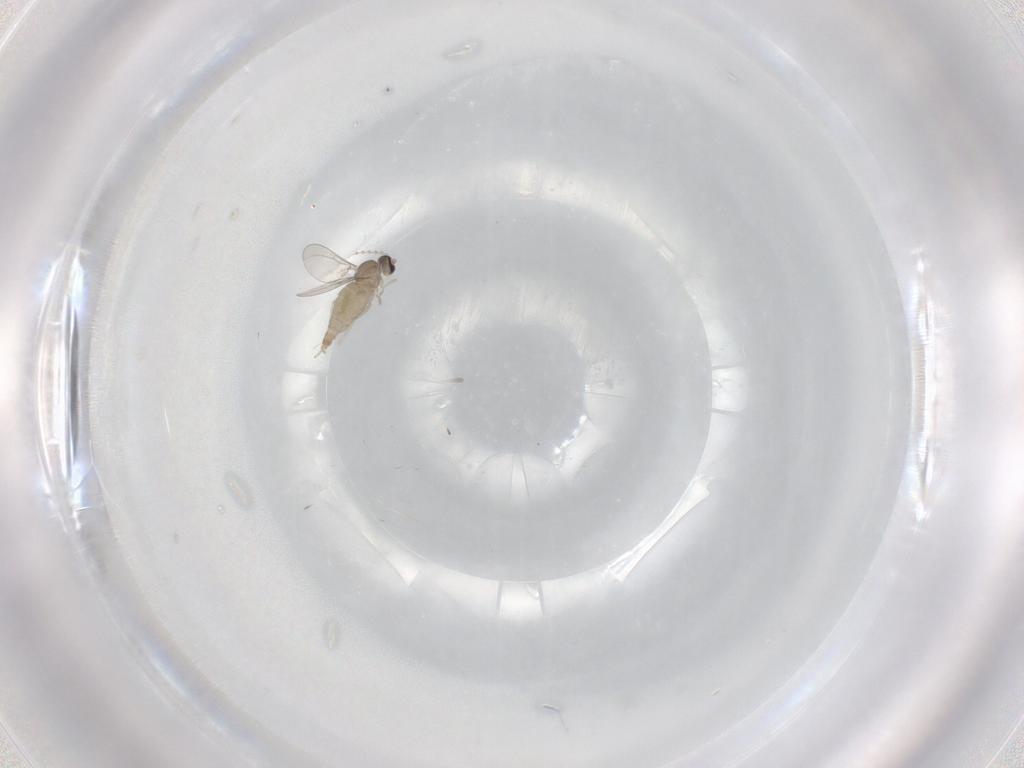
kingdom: Animalia
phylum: Arthropoda
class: Insecta
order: Diptera
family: Cecidomyiidae
